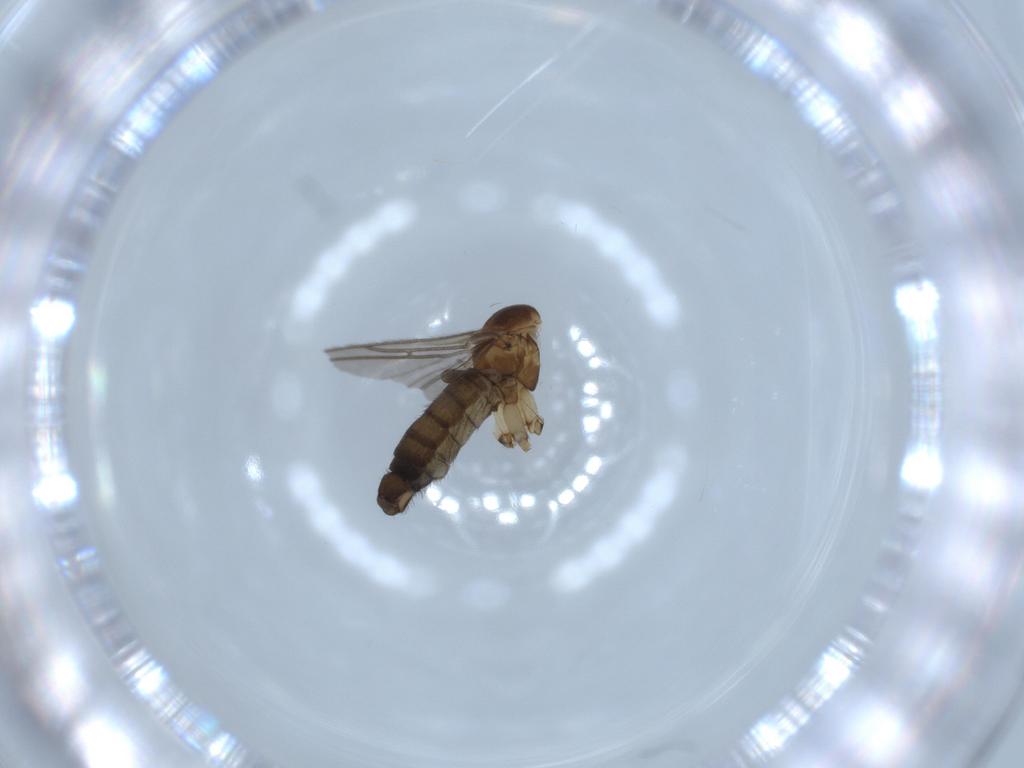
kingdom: Animalia
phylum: Arthropoda
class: Insecta
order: Diptera
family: Sciaridae
